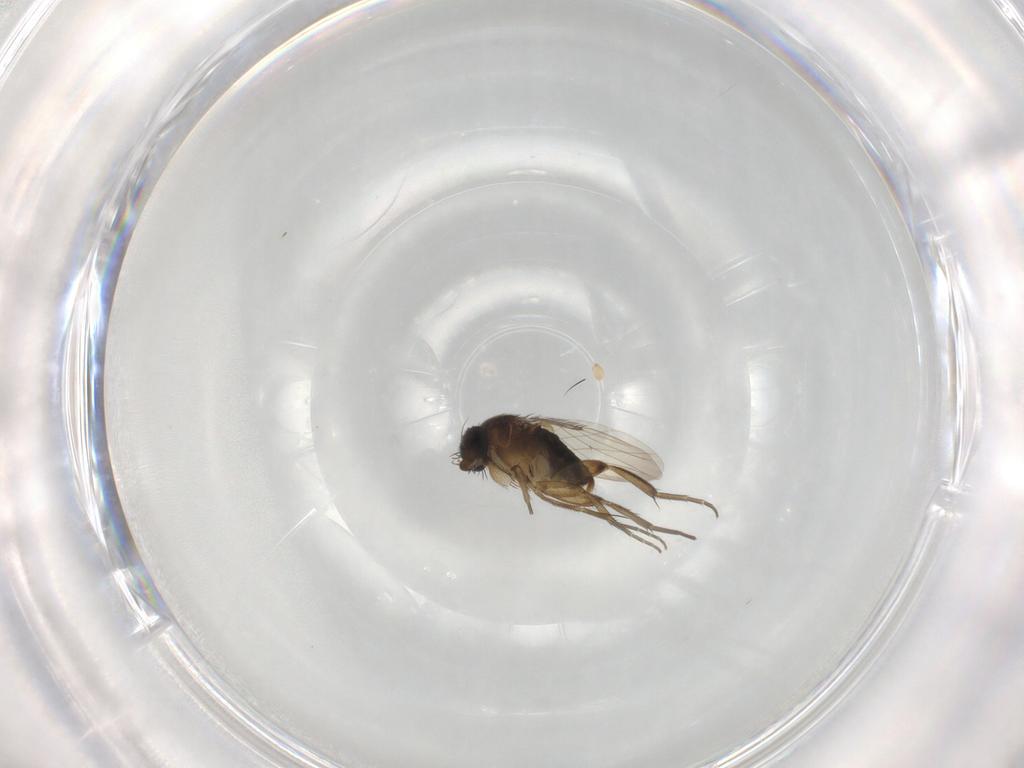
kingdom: Animalia
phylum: Arthropoda
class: Insecta
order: Diptera
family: Phoridae
